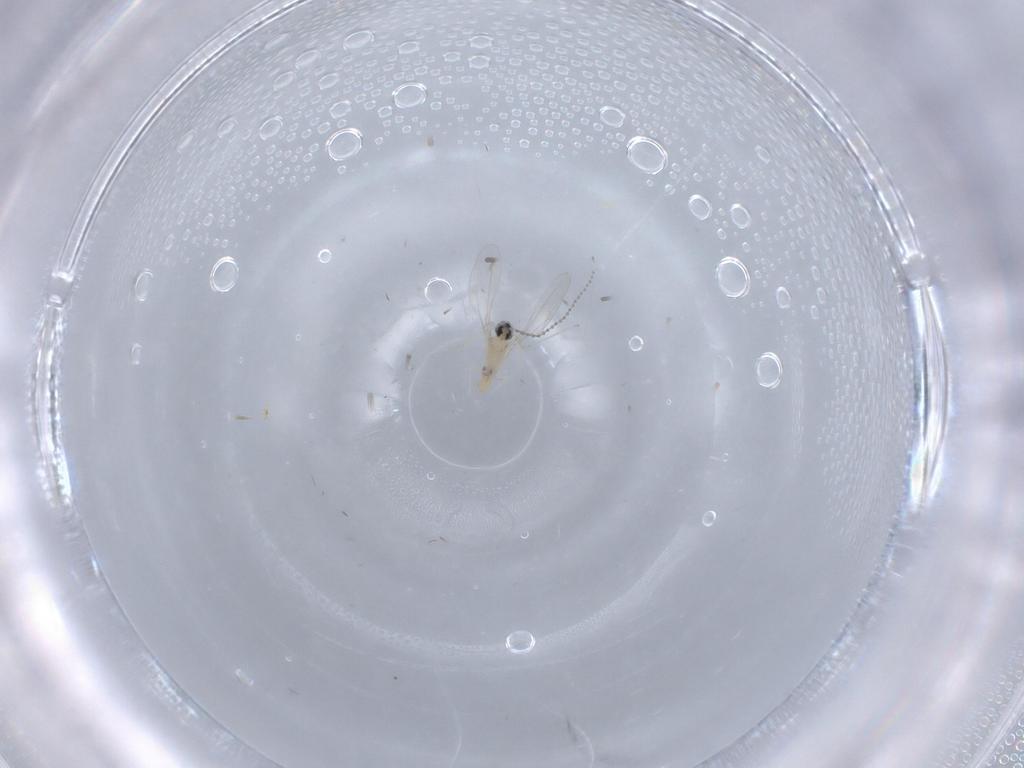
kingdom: Animalia
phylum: Arthropoda
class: Insecta
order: Diptera
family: Cecidomyiidae
